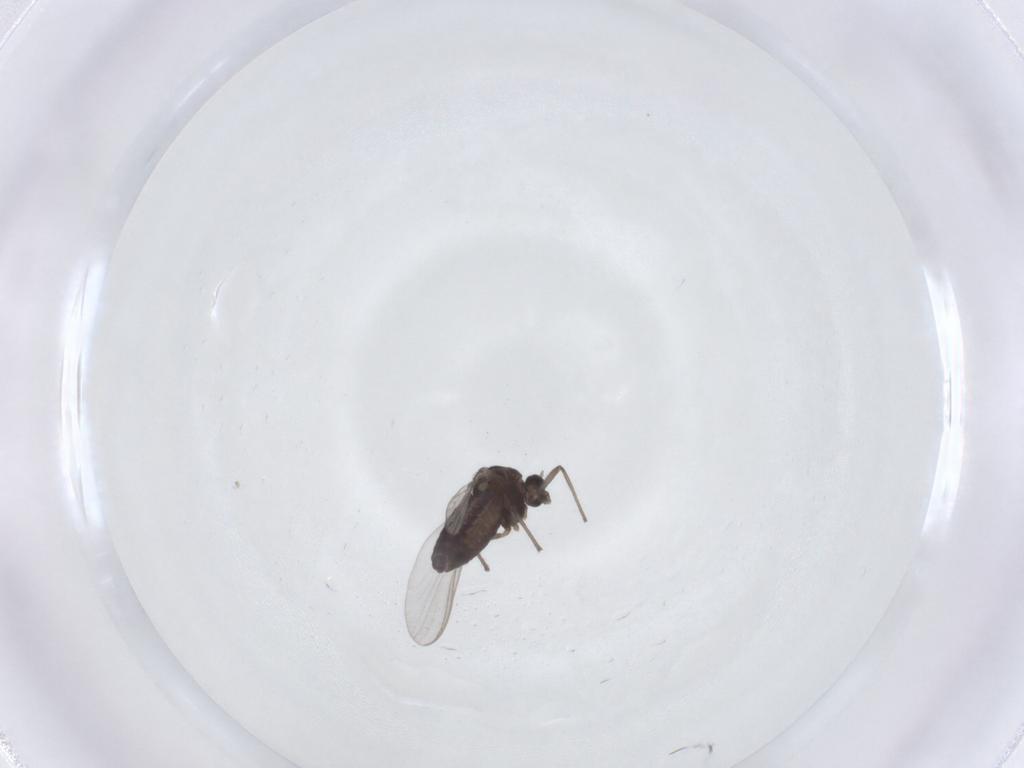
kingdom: Animalia
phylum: Arthropoda
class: Insecta
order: Diptera
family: Chironomidae
